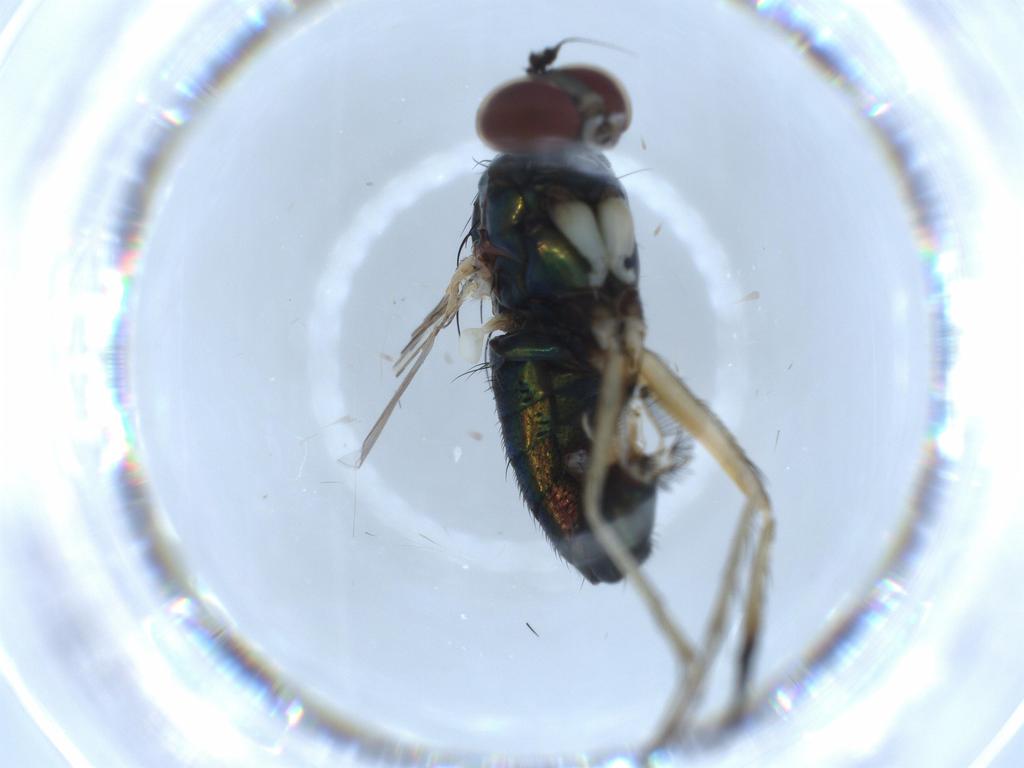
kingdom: Animalia
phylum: Arthropoda
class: Insecta
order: Diptera
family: Dolichopodidae
